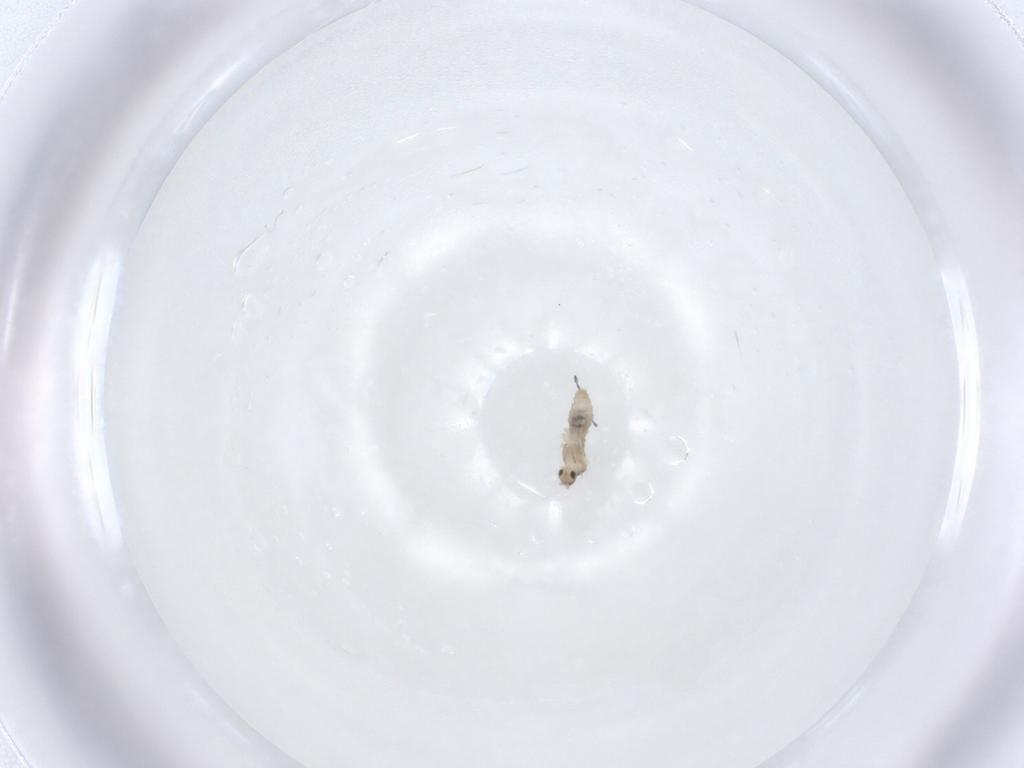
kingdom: Animalia
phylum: Arthropoda
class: Insecta
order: Diptera
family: Cecidomyiidae
